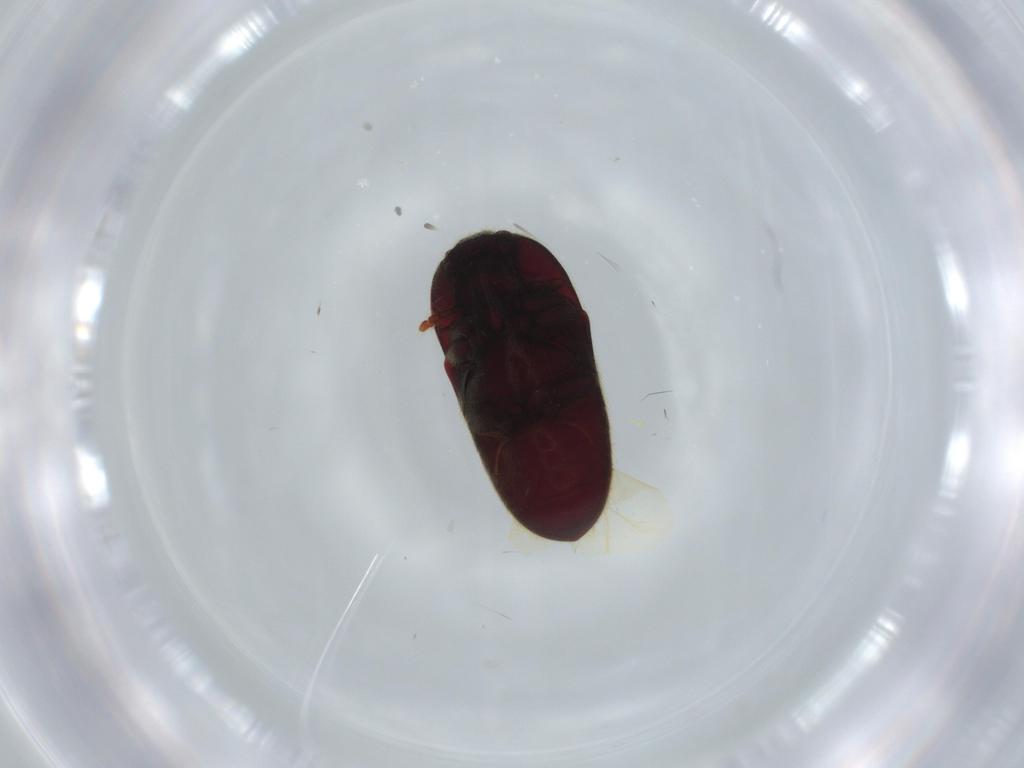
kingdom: Animalia
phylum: Arthropoda
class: Insecta
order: Coleoptera
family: Throscidae
